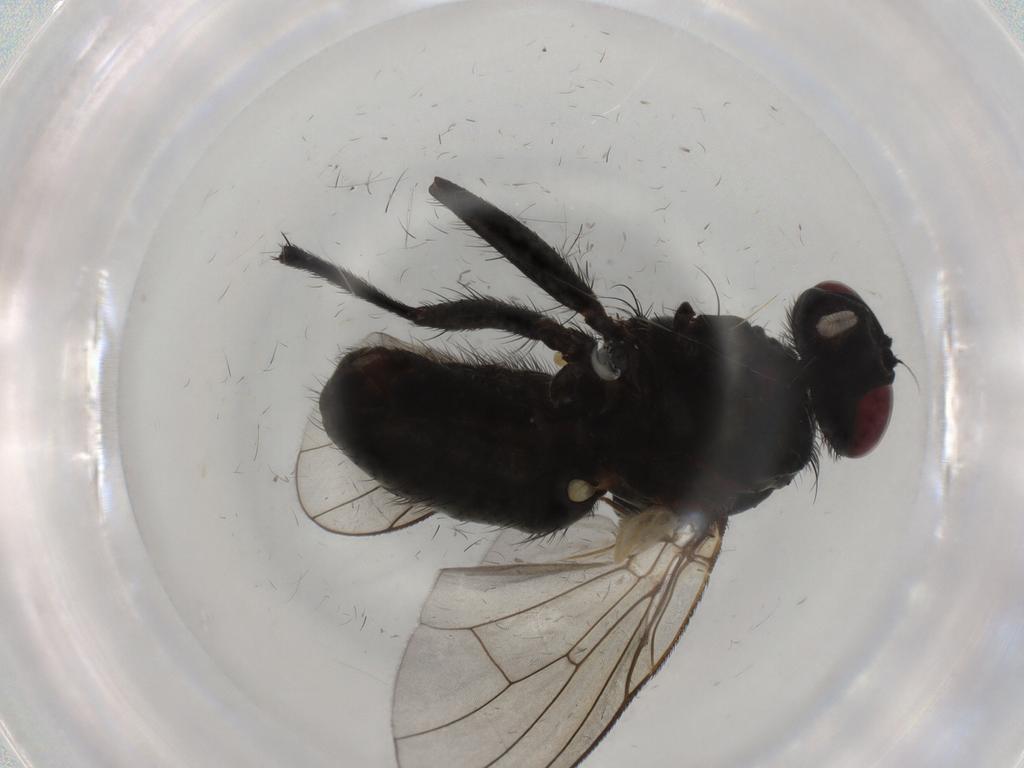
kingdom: Animalia
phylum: Arthropoda
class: Insecta
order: Diptera
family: Muscidae
